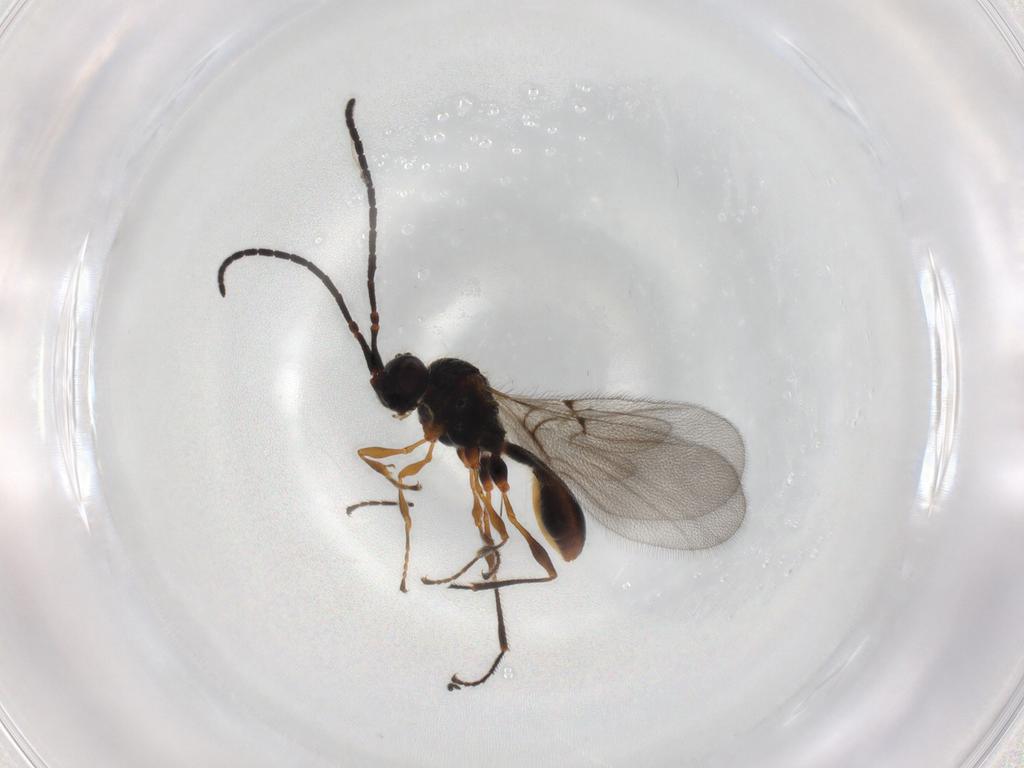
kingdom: Animalia
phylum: Arthropoda
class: Insecta
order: Hymenoptera
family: Diapriidae
